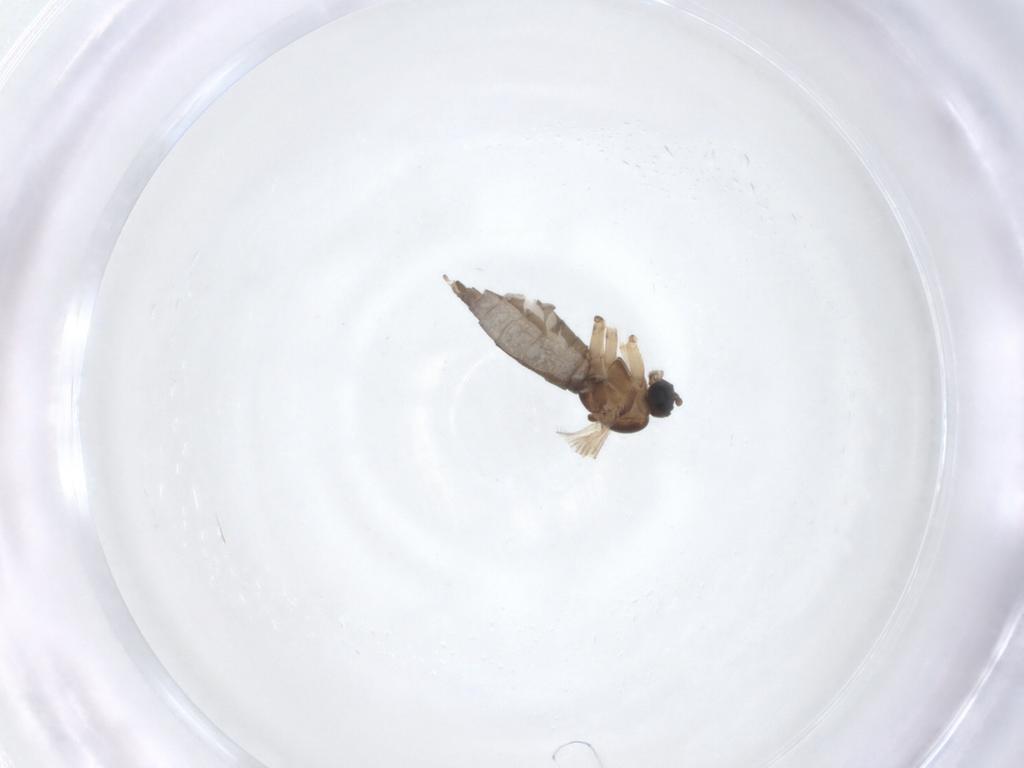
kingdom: Animalia
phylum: Arthropoda
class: Insecta
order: Diptera
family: Sciaridae
